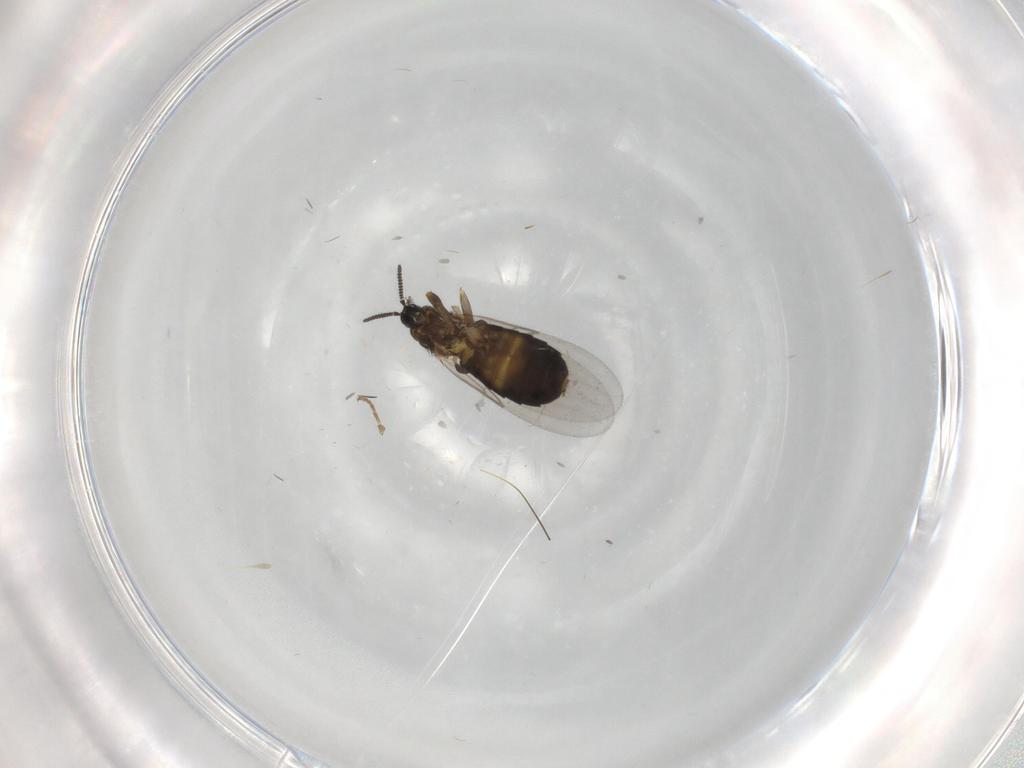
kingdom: Animalia
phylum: Arthropoda
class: Insecta
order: Diptera
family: Scatopsidae
